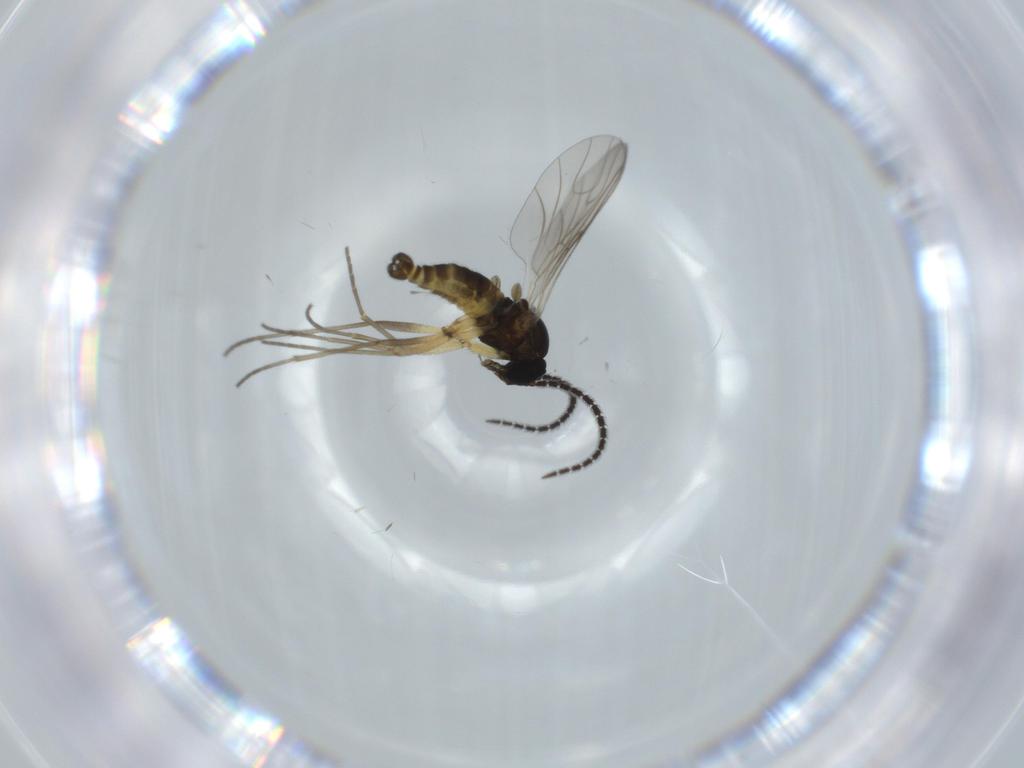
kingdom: Animalia
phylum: Arthropoda
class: Insecta
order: Diptera
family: Sciaridae
